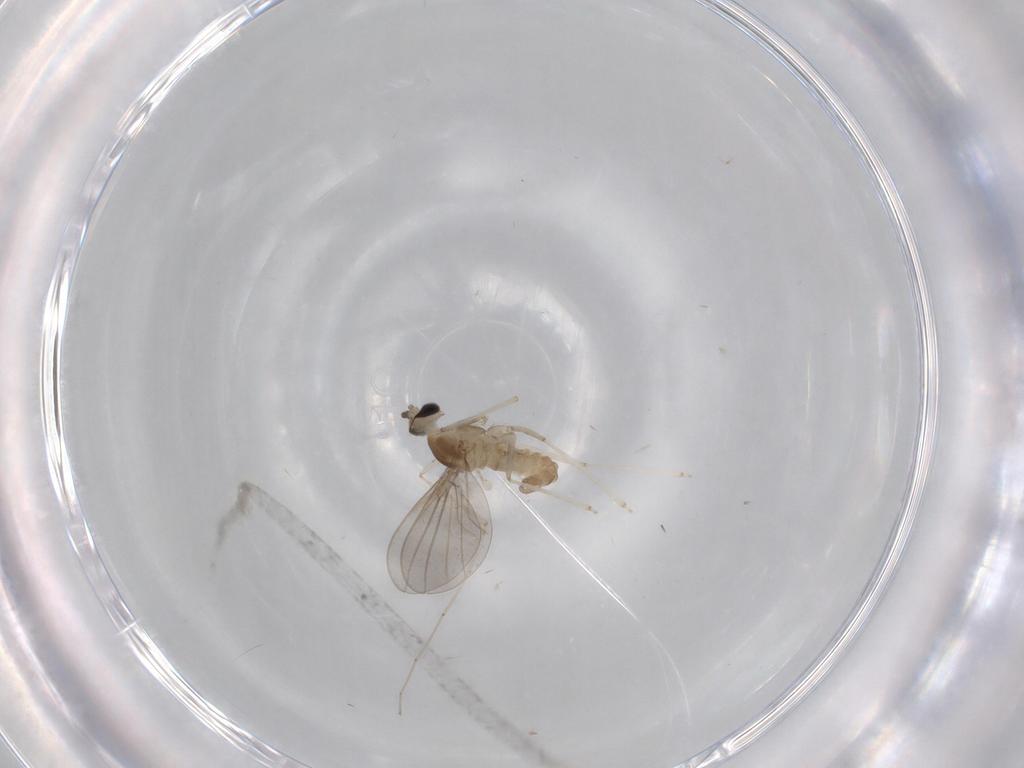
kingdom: Animalia
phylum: Arthropoda
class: Insecta
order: Diptera
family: Cecidomyiidae
